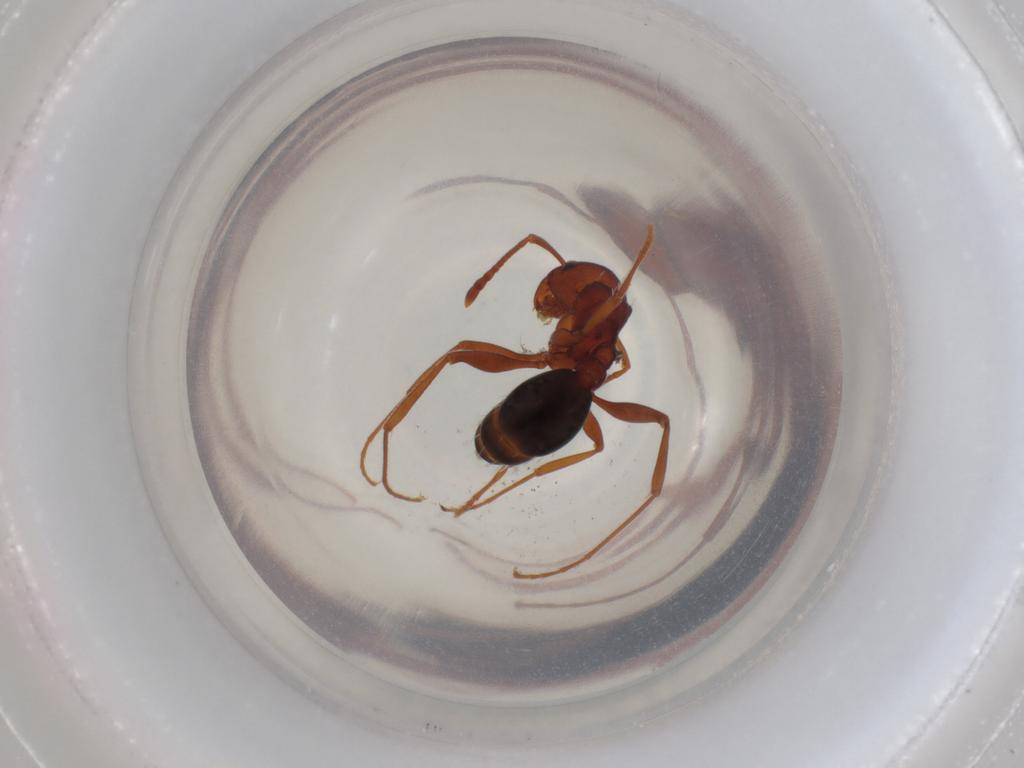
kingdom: Animalia
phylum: Arthropoda
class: Insecta
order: Hymenoptera
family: Formicidae
